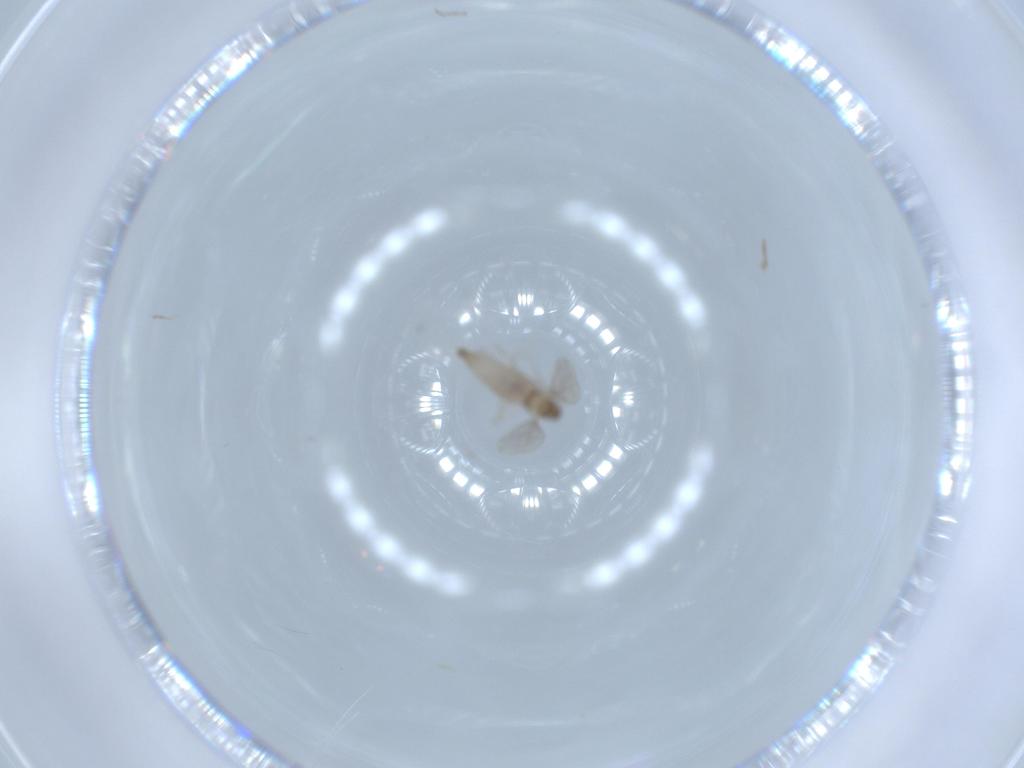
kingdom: Animalia
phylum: Arthropoda
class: Insecta
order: Diptera
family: Cecidomyiidae
